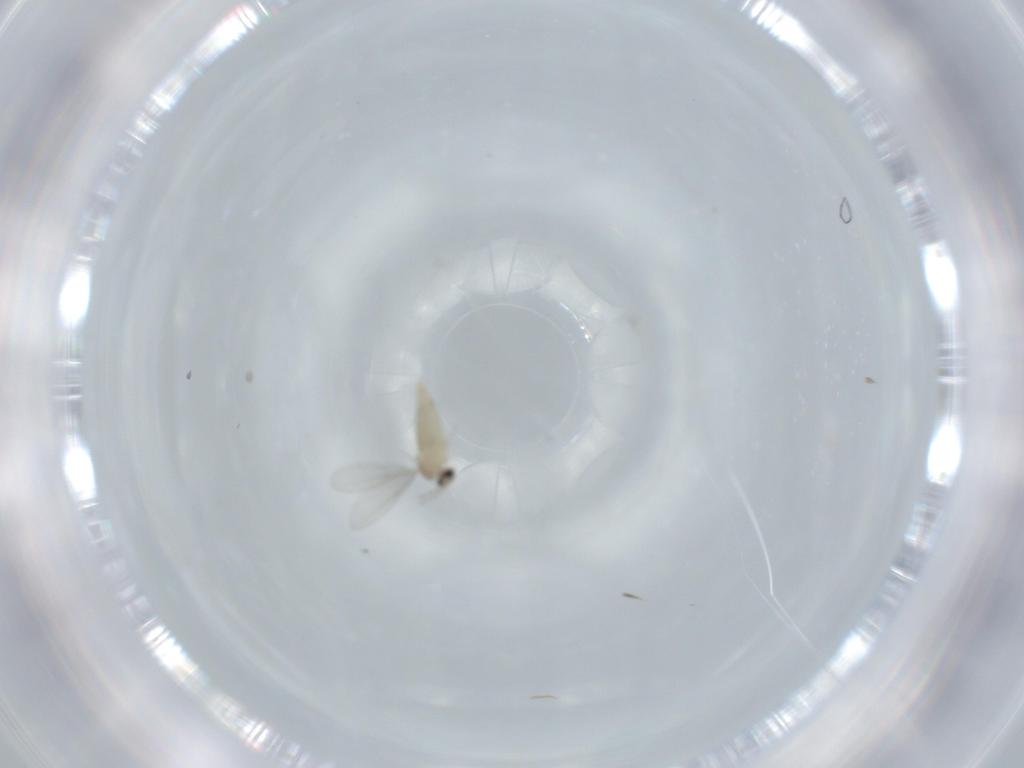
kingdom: Animalia
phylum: Arthropoda
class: Insecta
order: Diptera
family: Cecidomyiidae
